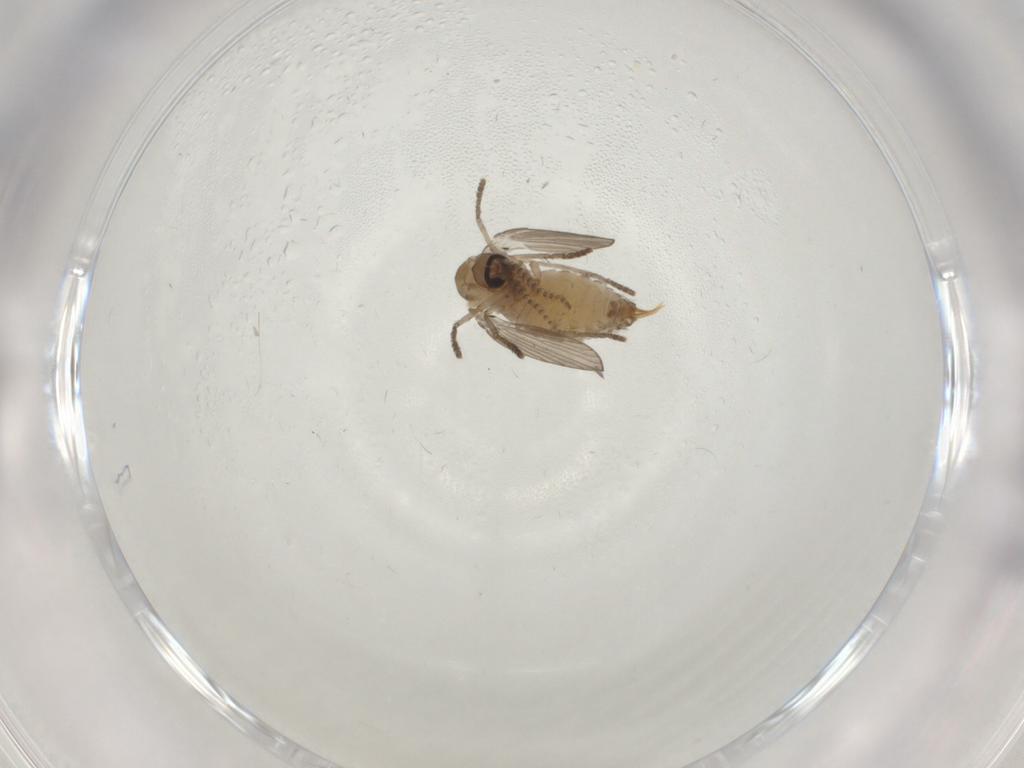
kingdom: Animalia
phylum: Arthropoda
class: Insecta
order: Diptera
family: Psychodidae
